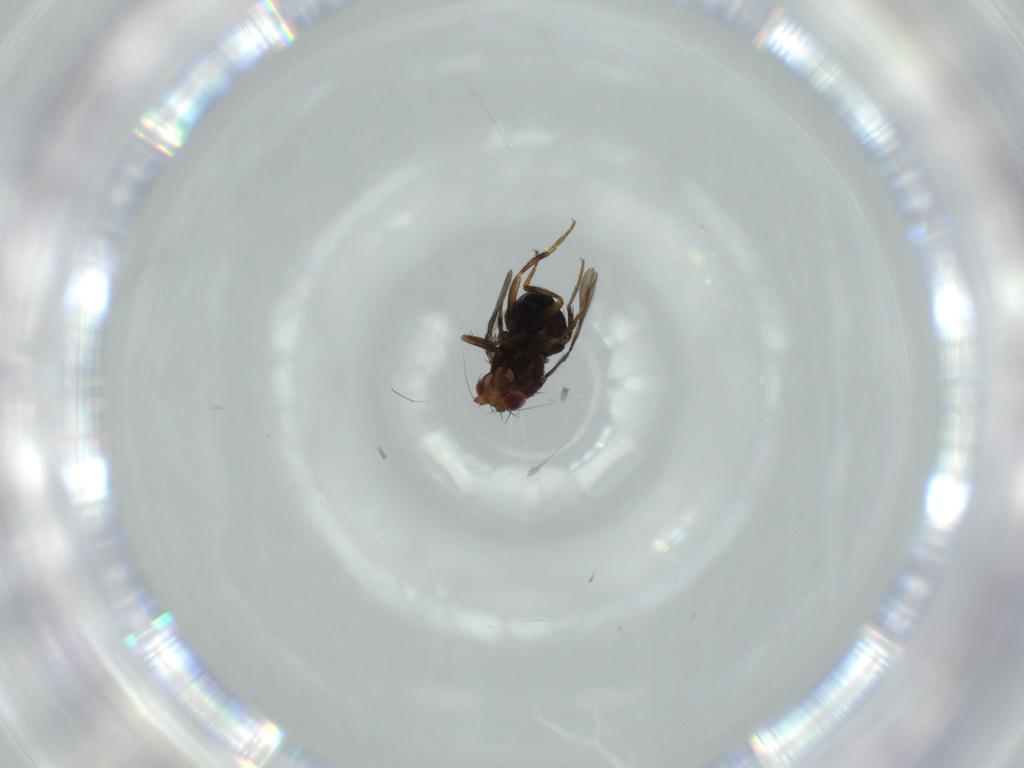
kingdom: Animalia
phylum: Arthropoda
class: Insecta
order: Diptera
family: Sphaeroceridae
